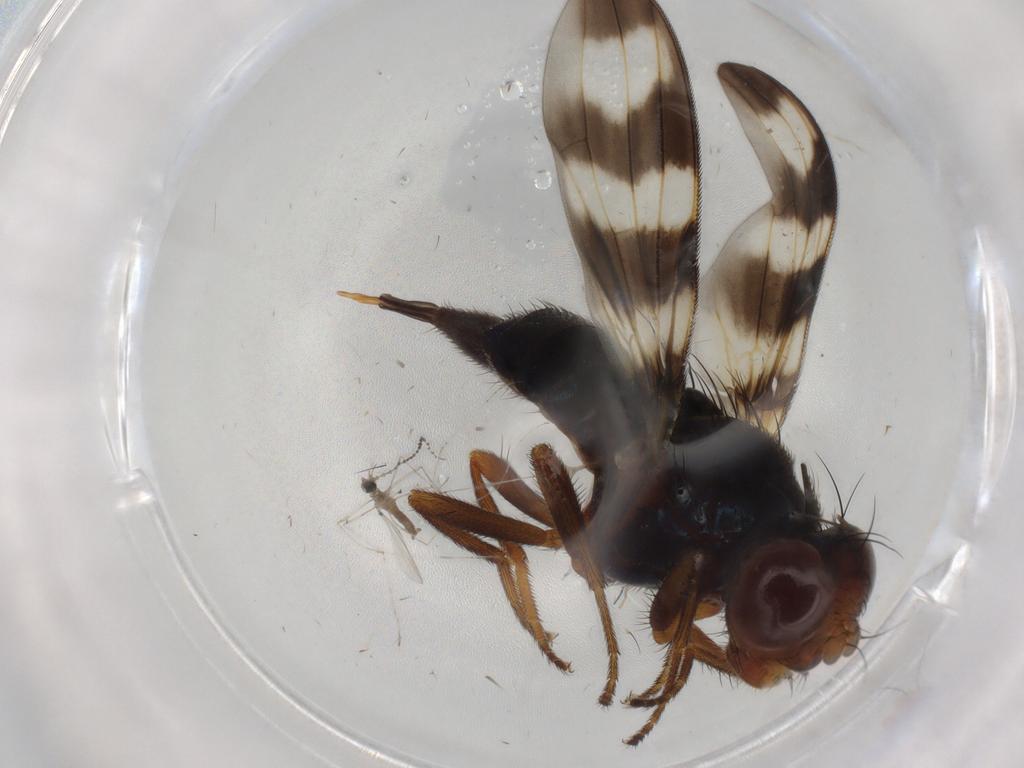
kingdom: Animalia
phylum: Arthropoda
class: Insecta
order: Diptera
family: Ulidiidae
